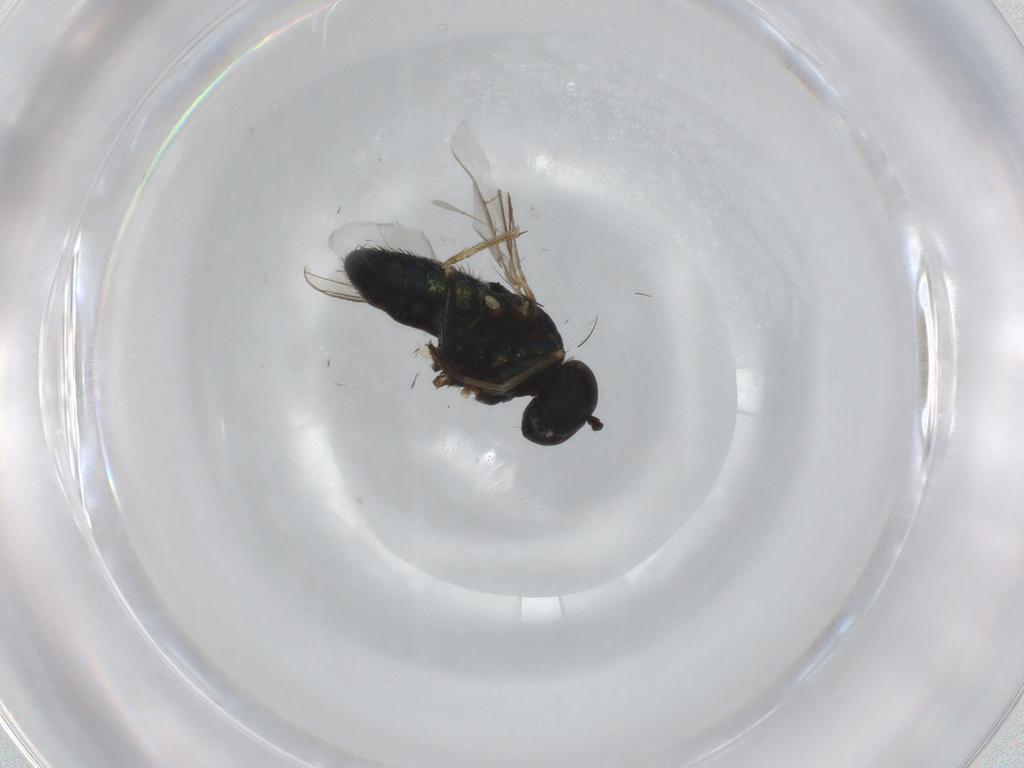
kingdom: Animalia
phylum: Arthropoda
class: Insecta
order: Diptera
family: Dolichopodidae
